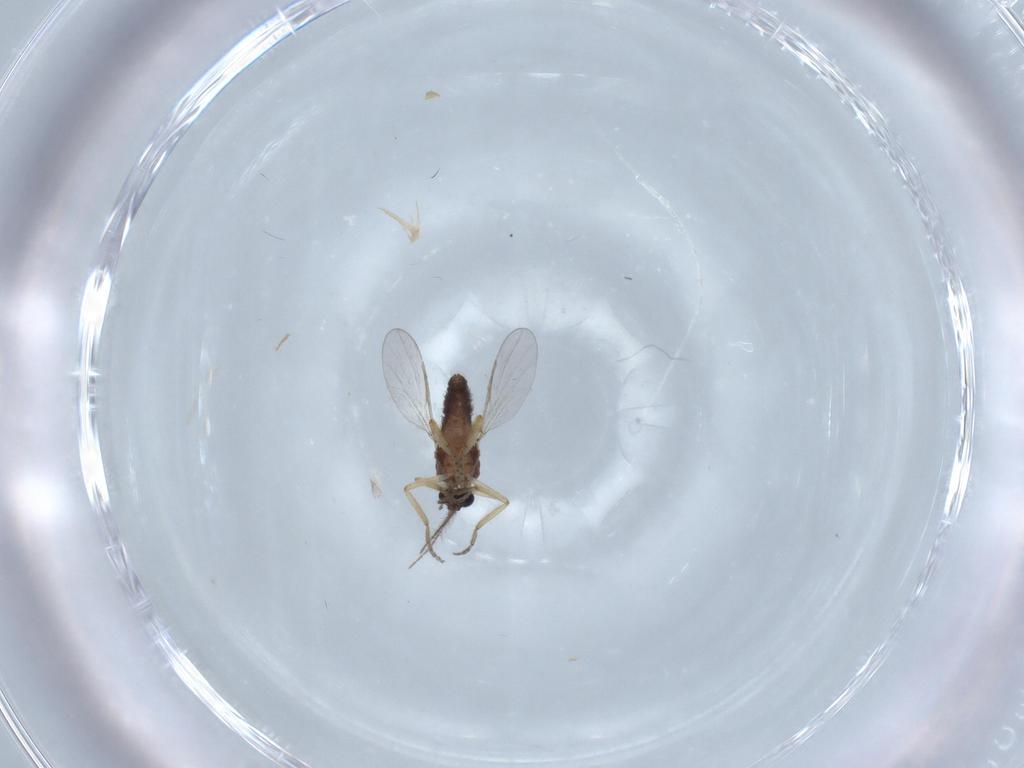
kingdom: Animalia
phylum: Arthropoda
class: Insecta
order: Diptera
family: Ceratopogonidae
